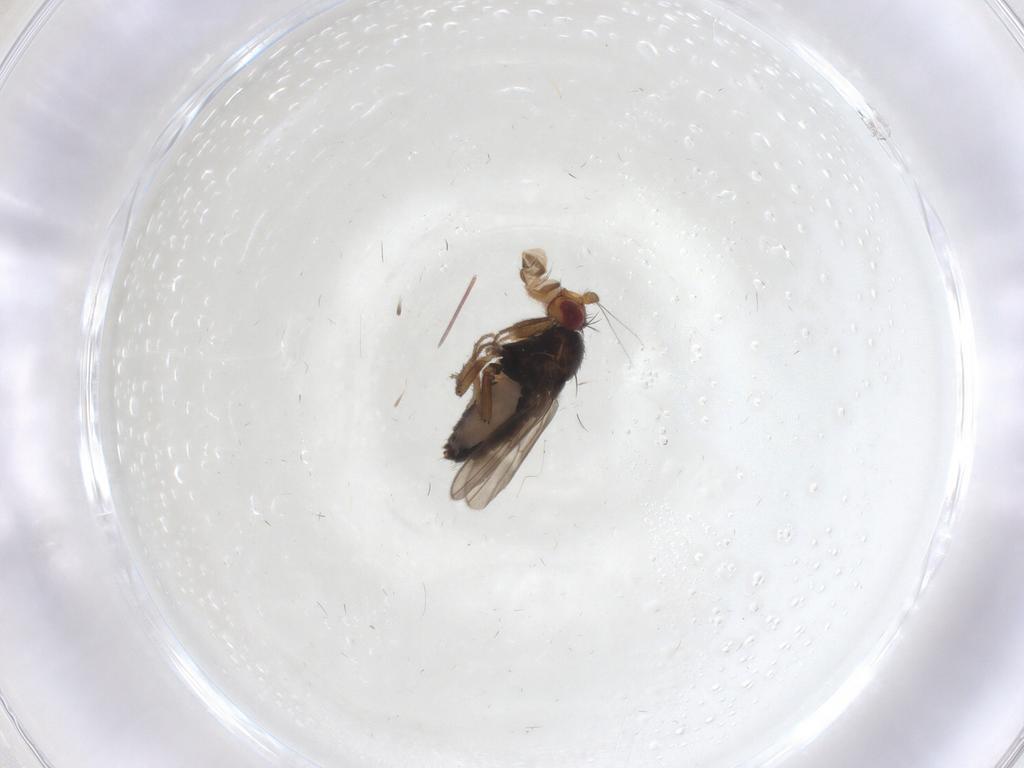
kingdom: Animalia
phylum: Arthropoda
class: Insecta
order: Diptera
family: Sphaeroceridae
